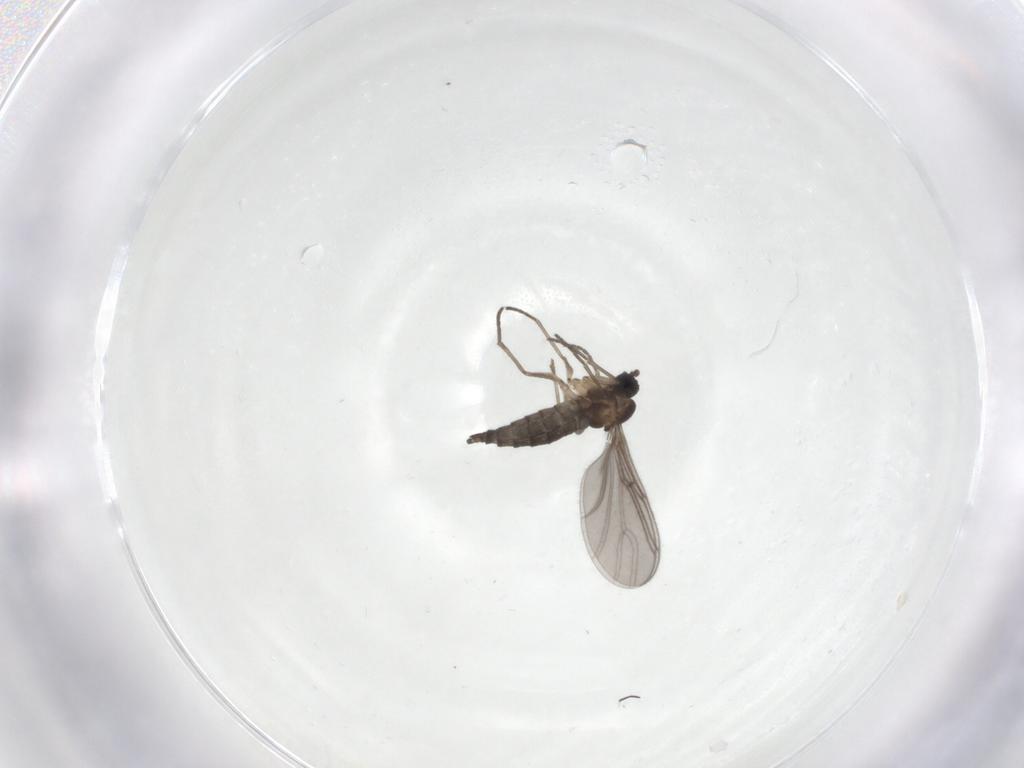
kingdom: Animalia
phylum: Arthropoda
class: Insecta
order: Diptera
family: Sciaridae
